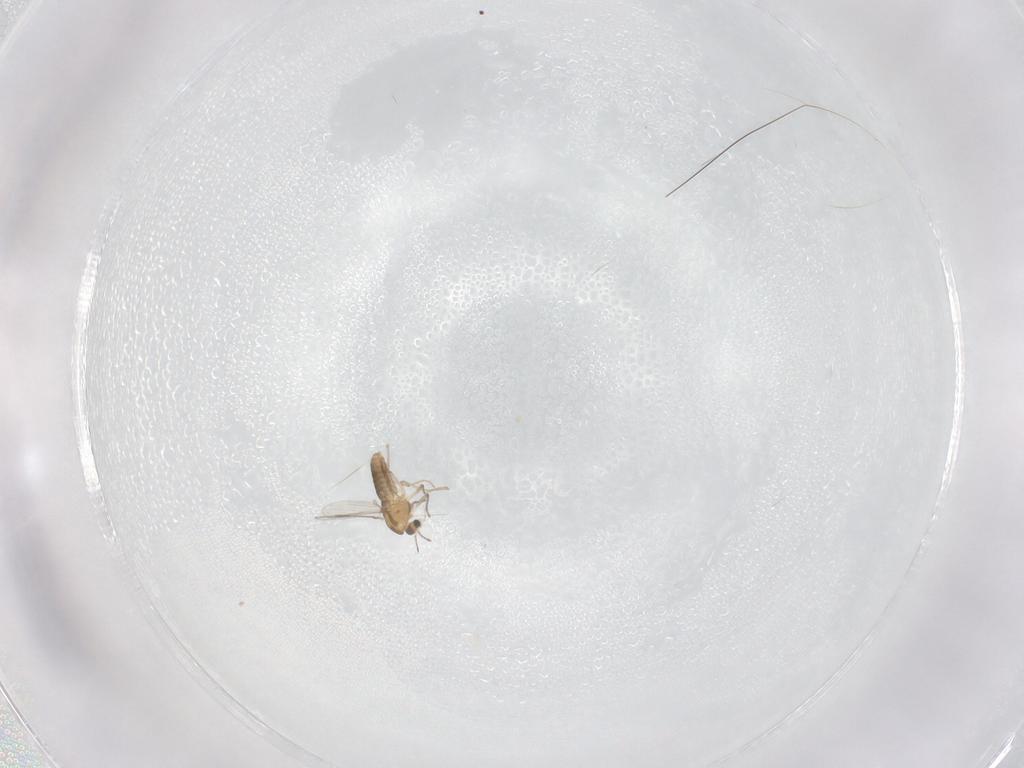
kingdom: Animalia
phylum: Arthropoda
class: Insecta
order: Diptera
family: Chironomidae
